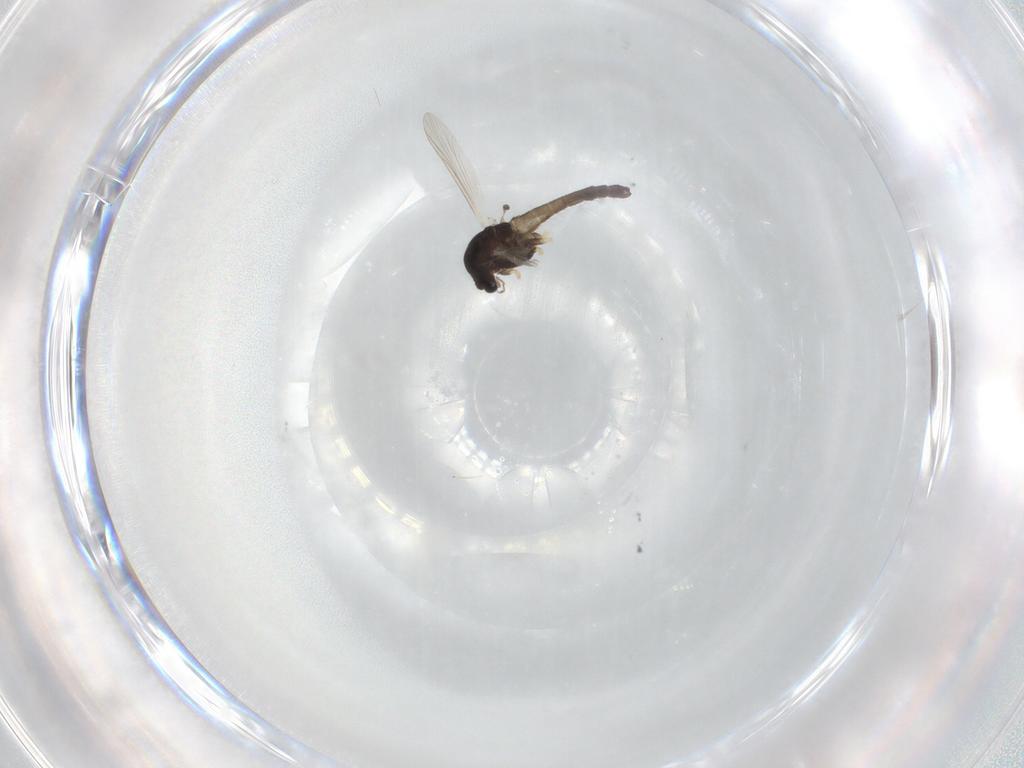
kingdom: Animalia
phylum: Arthropoda
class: Insecta
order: Diptera
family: Chironomidae
